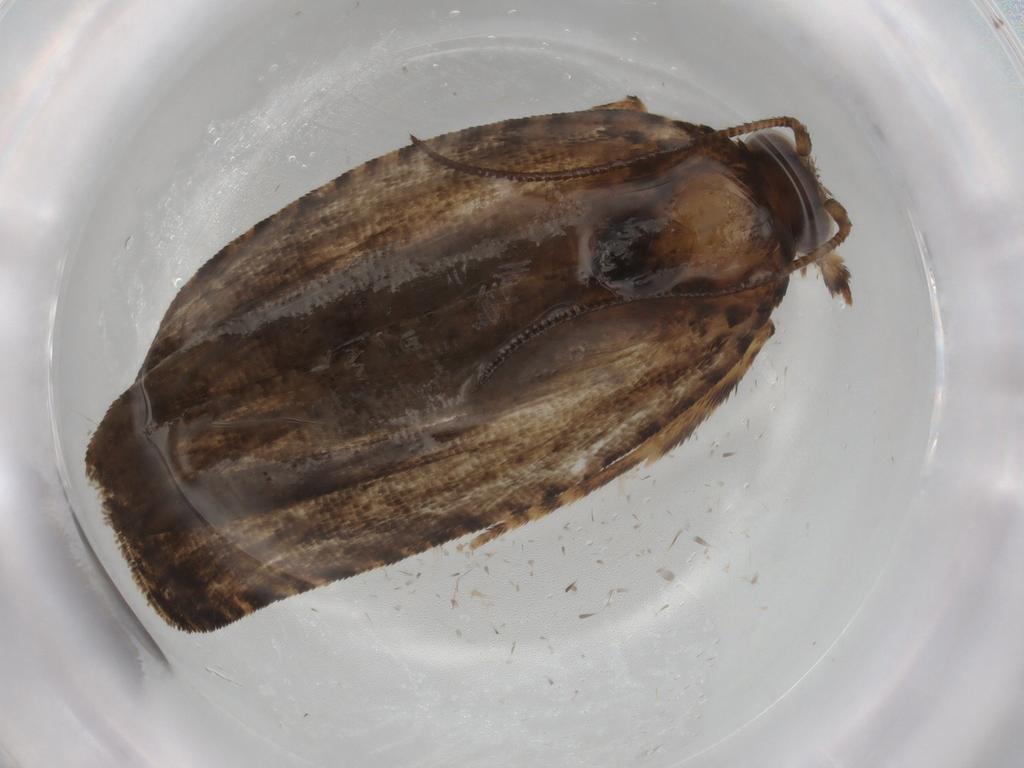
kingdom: Animalia
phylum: Arthropoda
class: Insecta
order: Lepidoptera
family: Tortricidae
